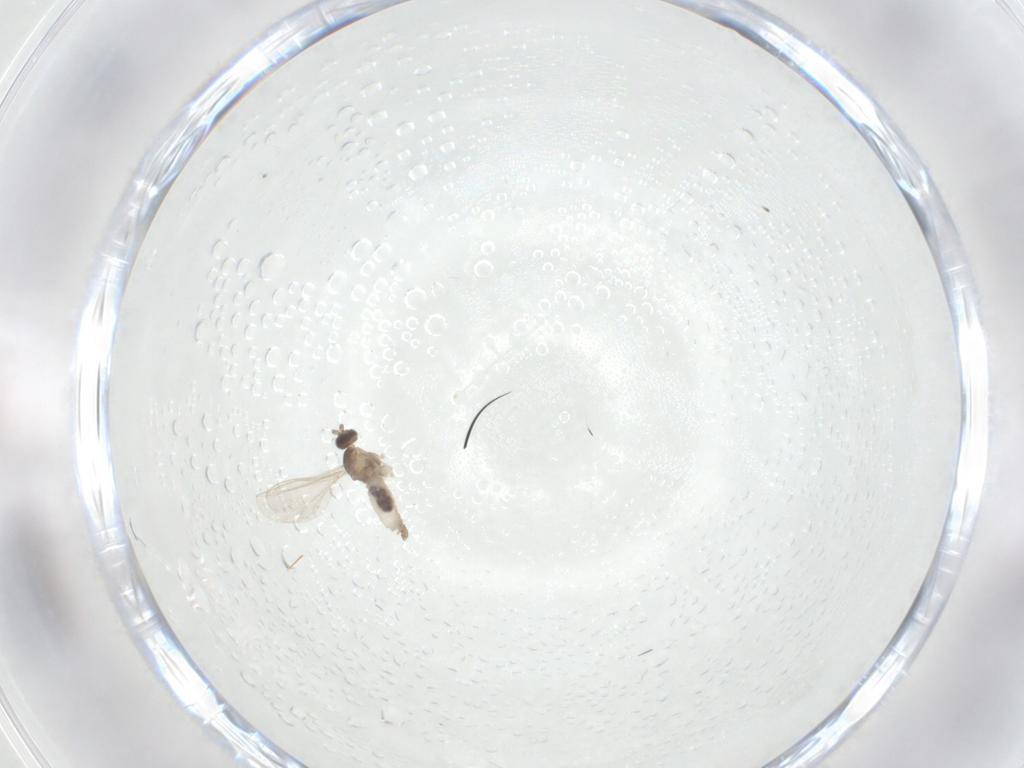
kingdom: Animalia
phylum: Arthropoda
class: Insecta
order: Diptera
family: Cecidomyiidae
